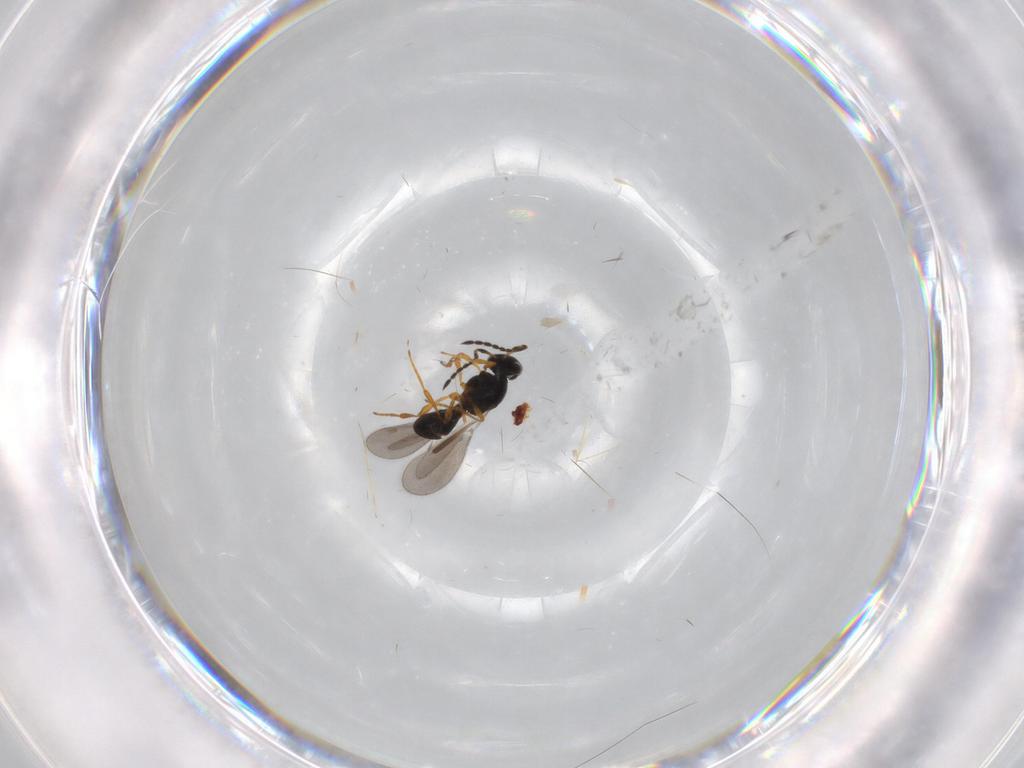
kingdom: Animalia
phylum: Arthropoda
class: Insecta
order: Hymenoptera
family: Platygastridae
